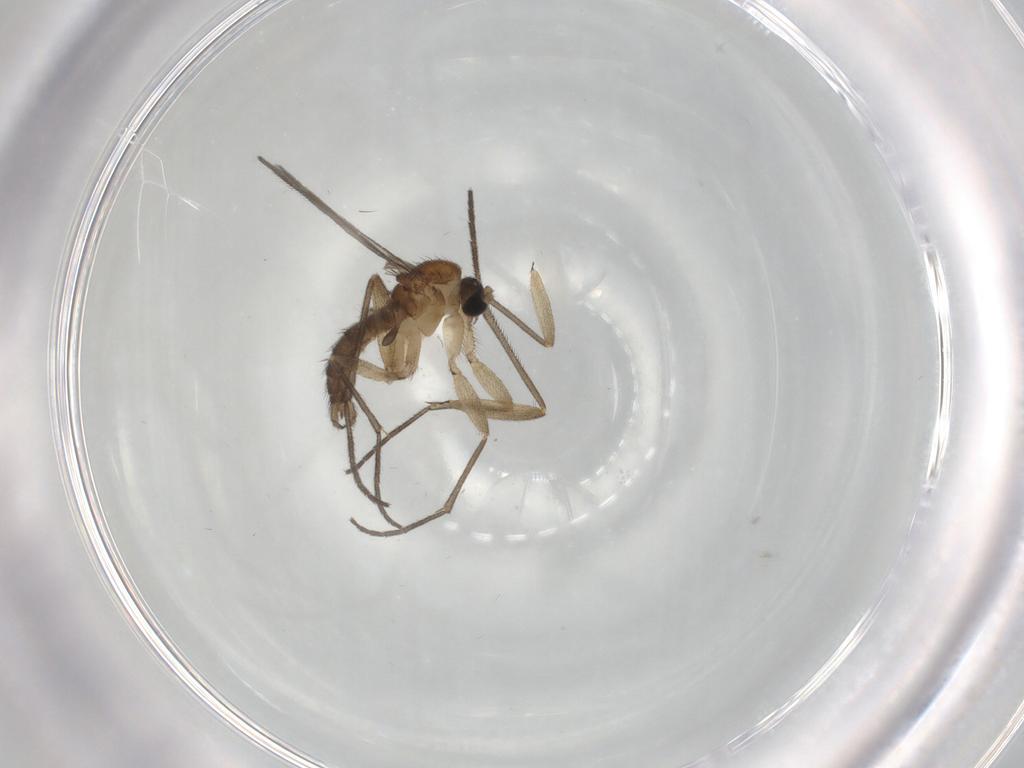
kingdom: Animalia
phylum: Arthropoda
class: Insecta
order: Diptera
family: Sciaridae
